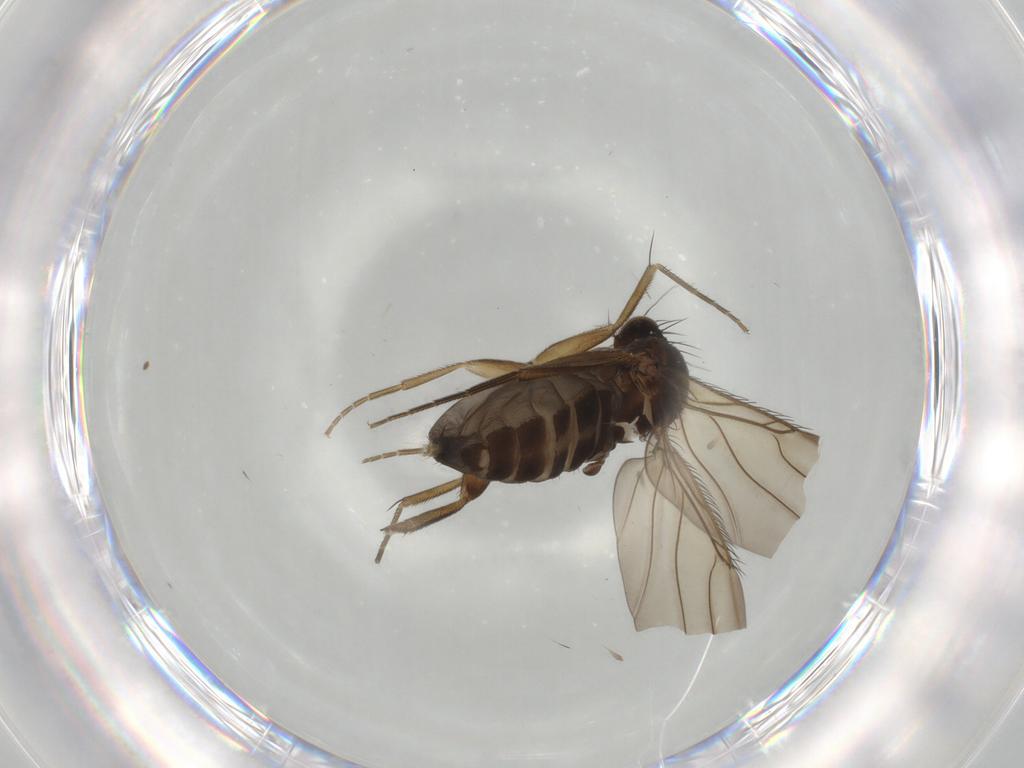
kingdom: Animalia
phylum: Arthropoda
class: Insecta
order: Diptera
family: Phoridae
